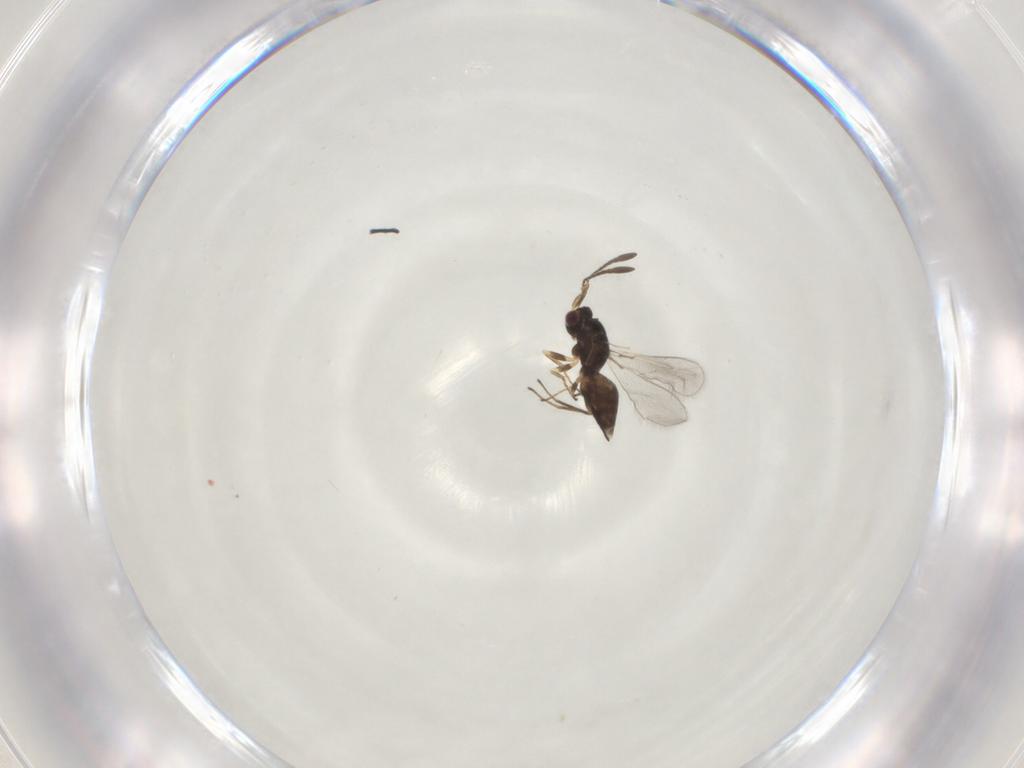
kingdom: Animalia
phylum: Arthropoda
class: Insecta
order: Hymenoptera
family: Mymaridae
